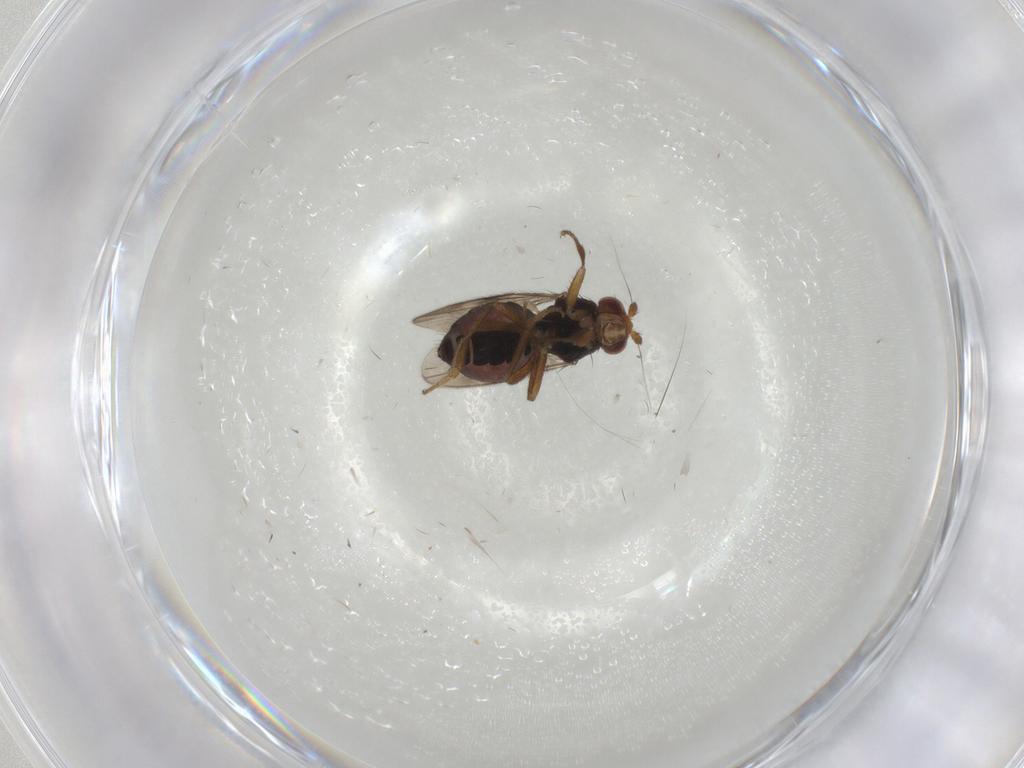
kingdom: Animalia
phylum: Arthropoda
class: Insecta
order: Diptera
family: Sphaeroceridae
